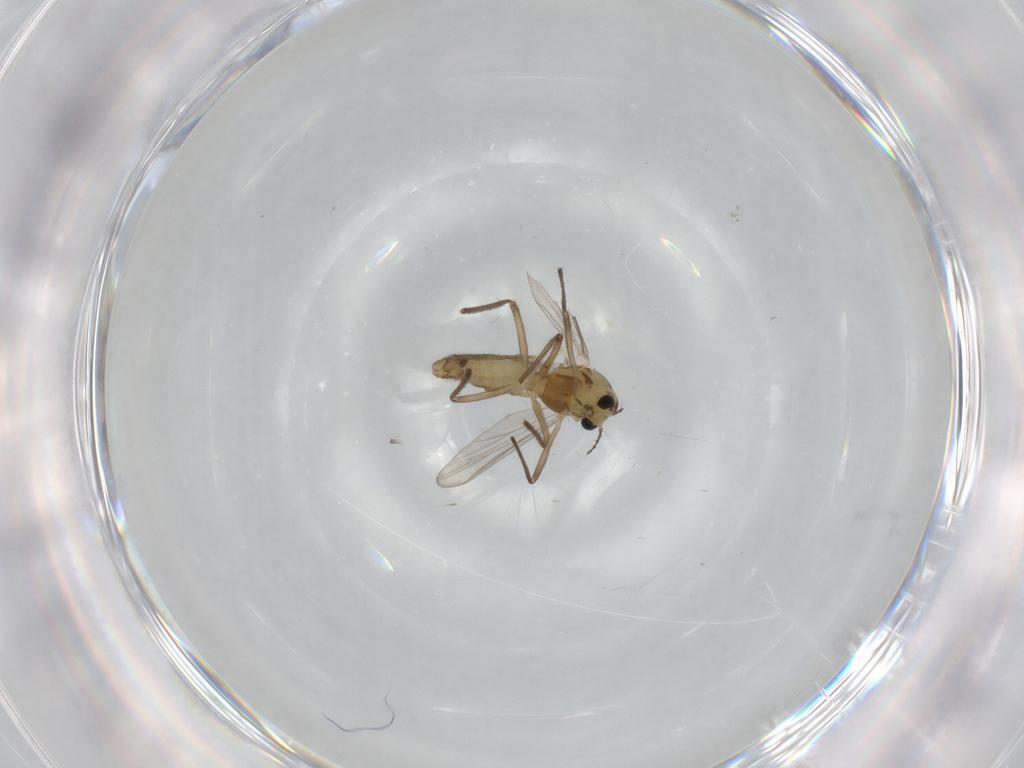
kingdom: Animalia
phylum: Arthropoda
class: Insecta
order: Diptera
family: Chironomidae
